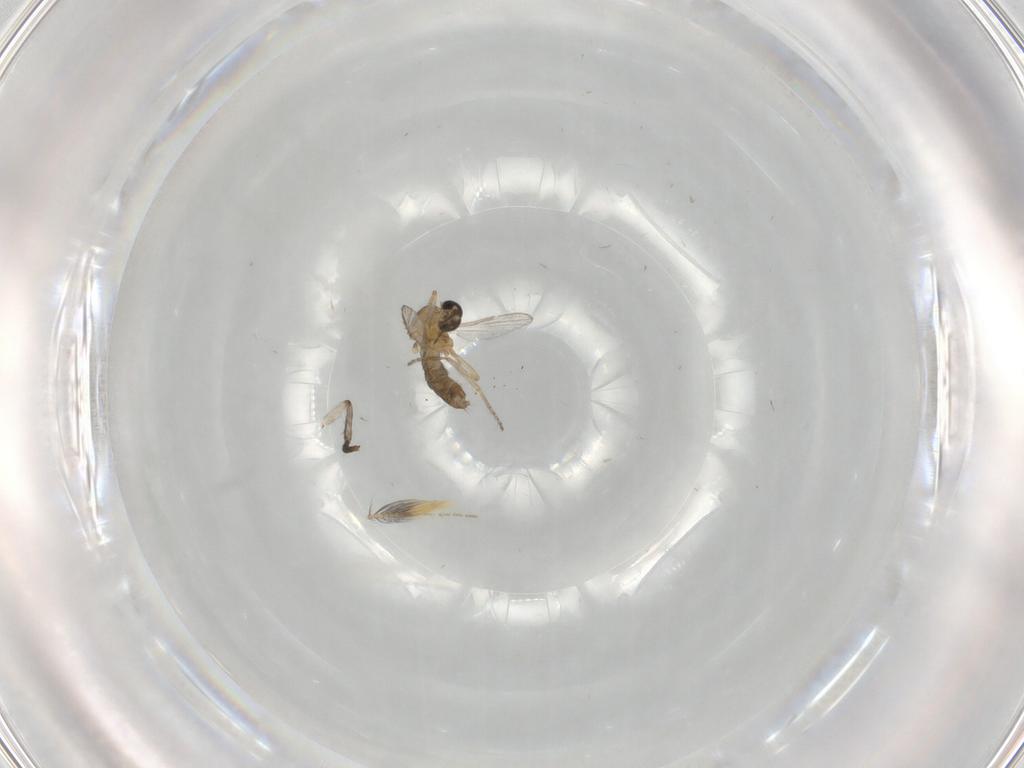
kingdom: Animalia
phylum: Arthropoda
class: Insecta
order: Diptera
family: Ceratopogonidae
